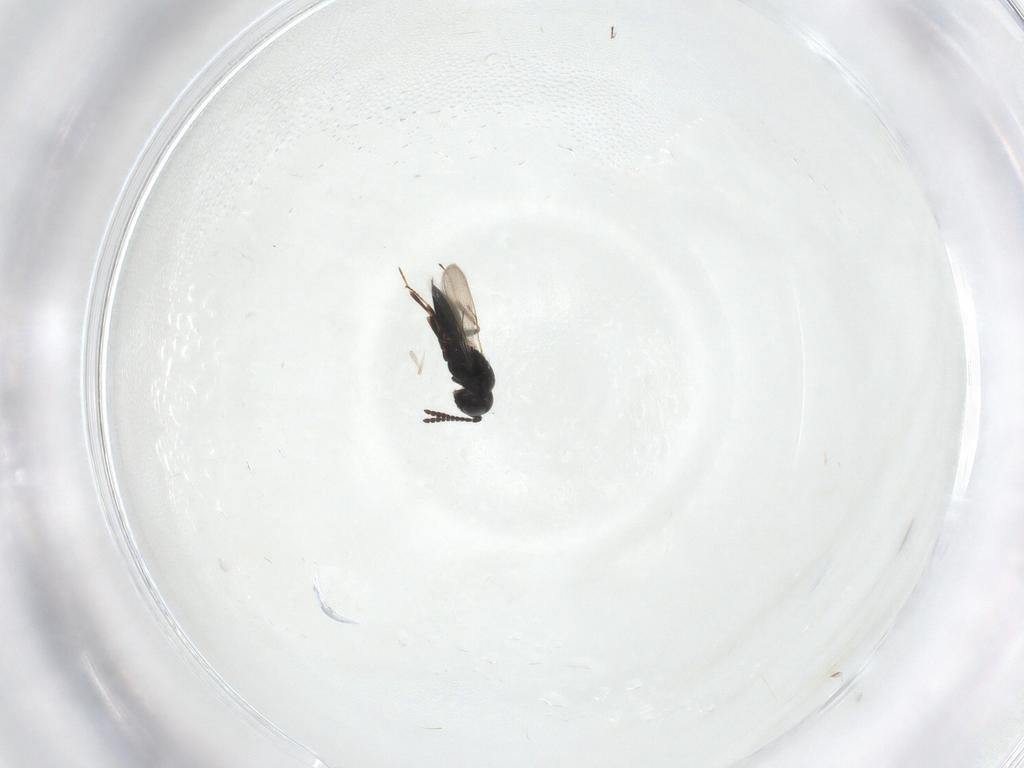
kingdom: Animalia
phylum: Arthropoda
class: Insecta
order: Hymenoptera
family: Scelionidae
